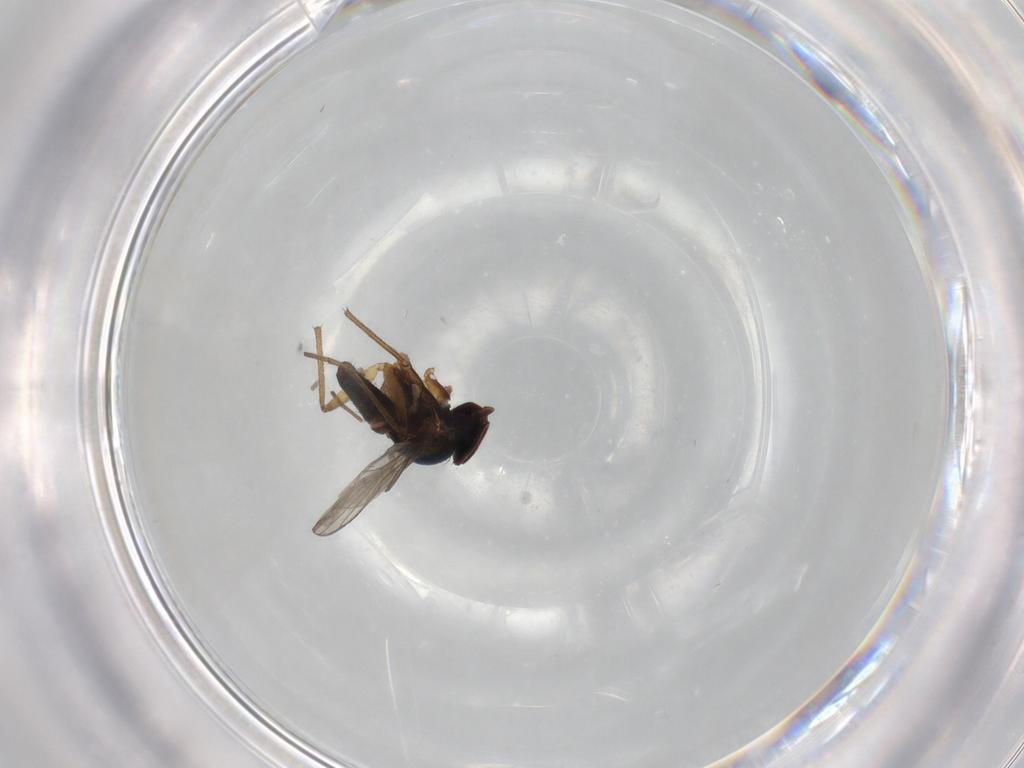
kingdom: Animalia
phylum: Arthropoda
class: Insecta
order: Diptera
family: Dolichopodidae
